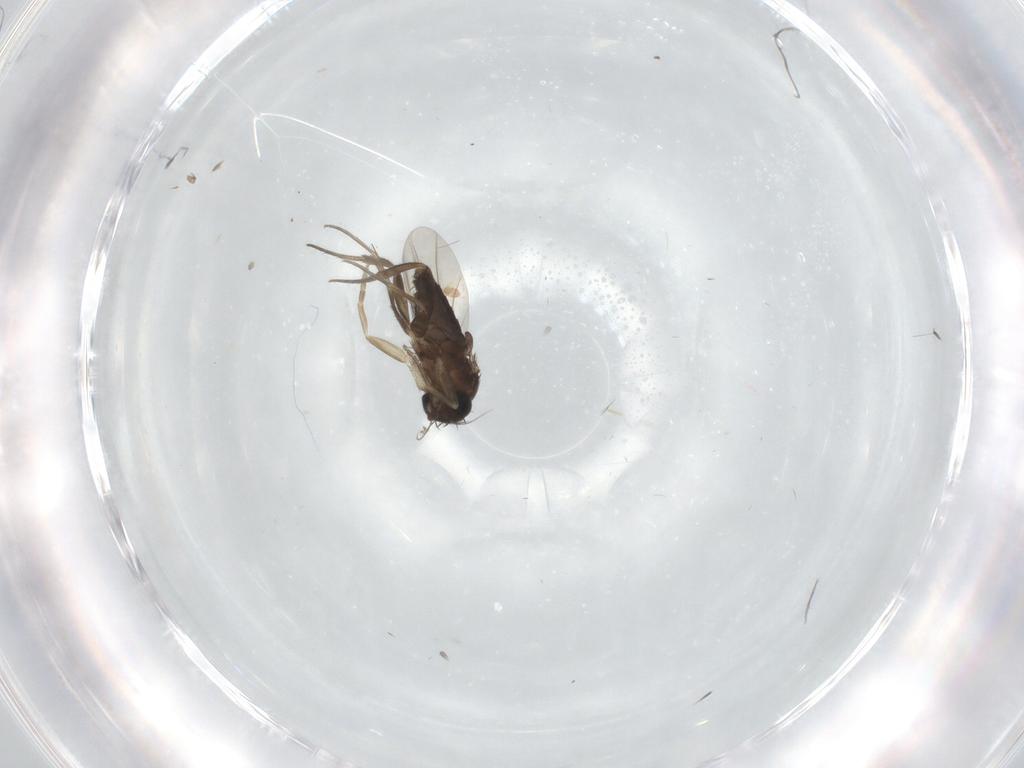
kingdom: Animalia
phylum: Arthropoda
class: Insecta
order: Diptera
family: Phoridae
